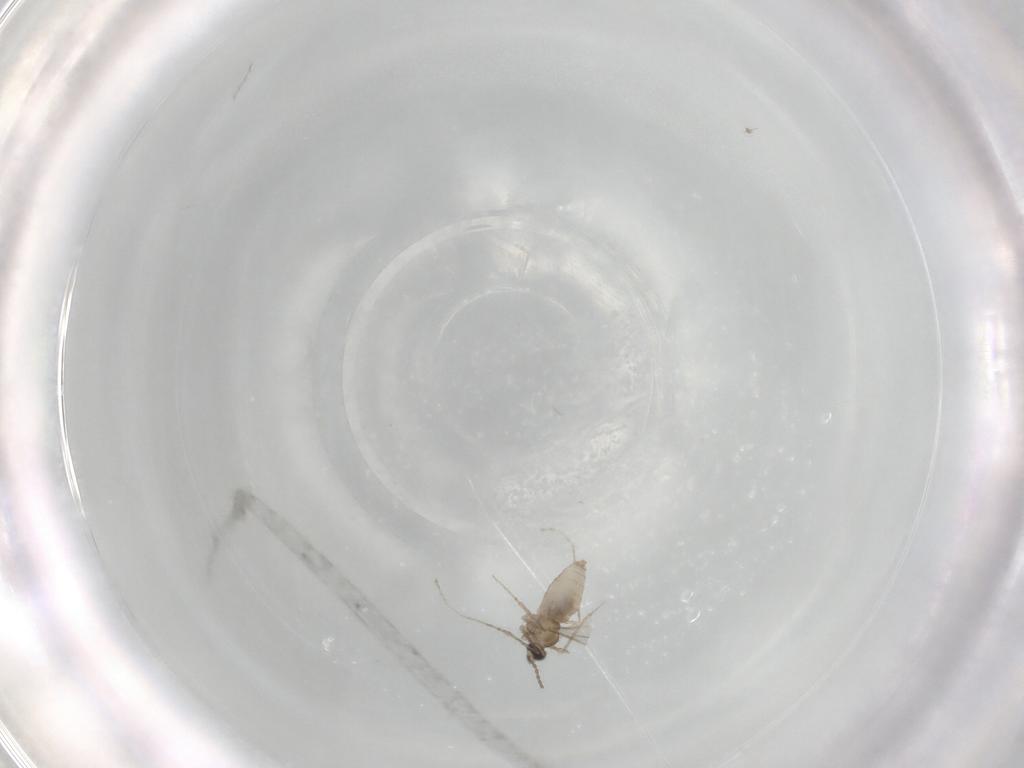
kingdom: Animalia
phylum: Arthropoda
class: Insecta
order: Diptera
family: Cecidomyiidae
